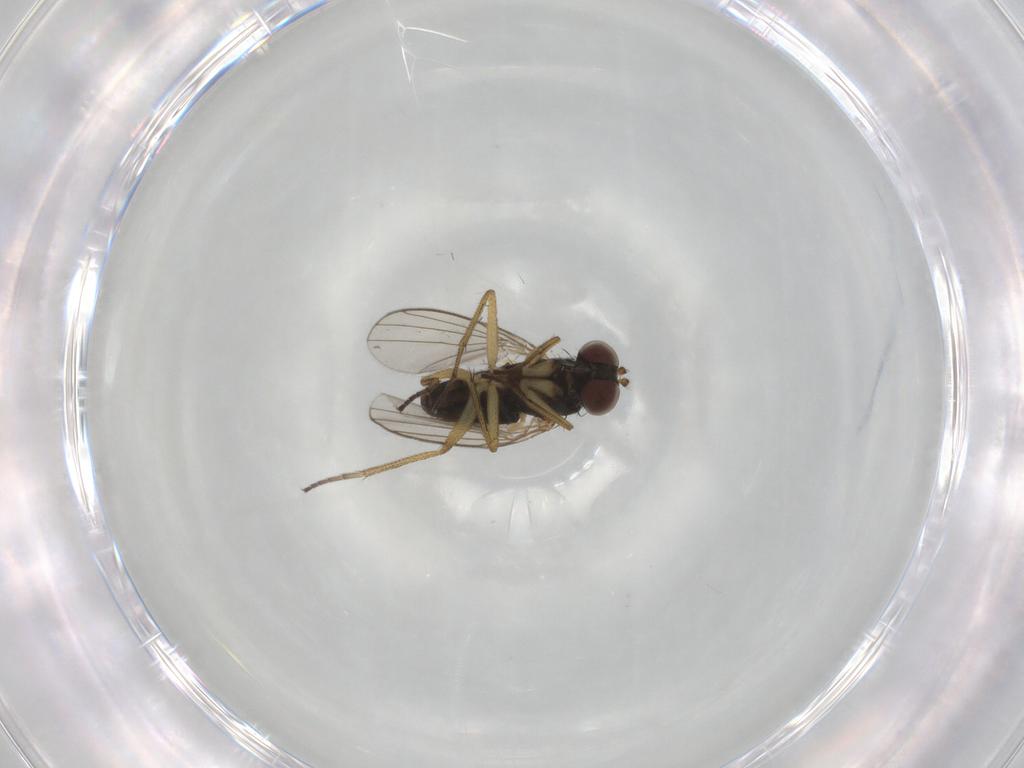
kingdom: Animalia
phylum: Arthropoda
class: Insecta
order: Diptera
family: Dolichopodidae
